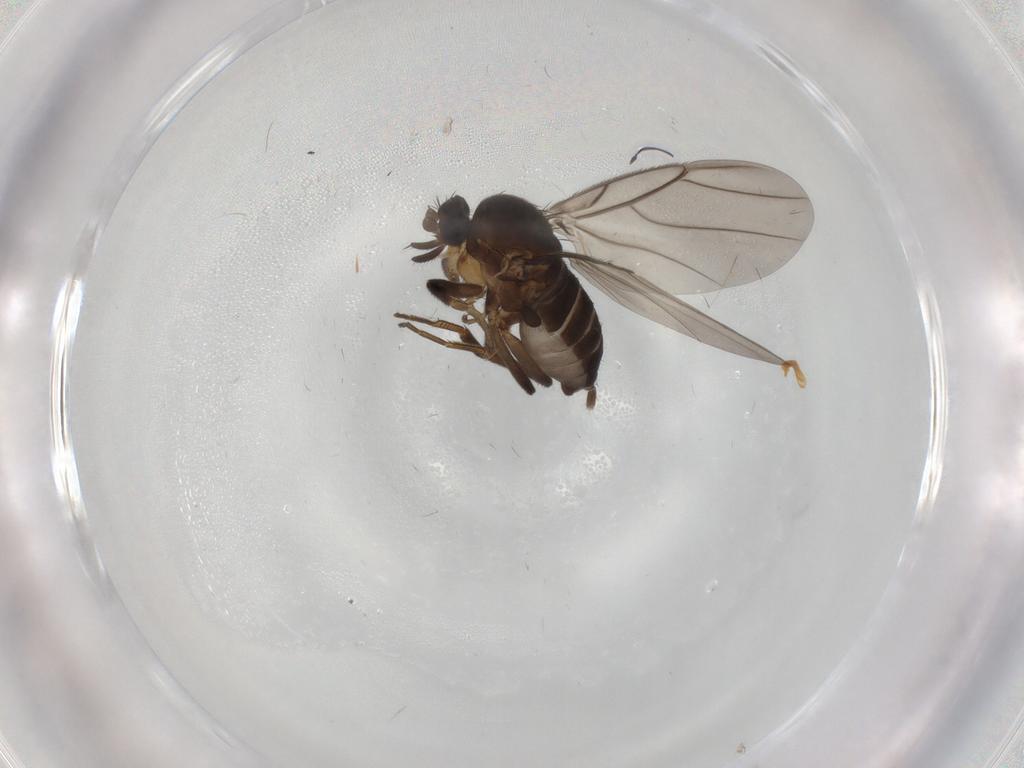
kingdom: Animalia
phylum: Arthropoda
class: Insecta
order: Diptera
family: Phoridae
